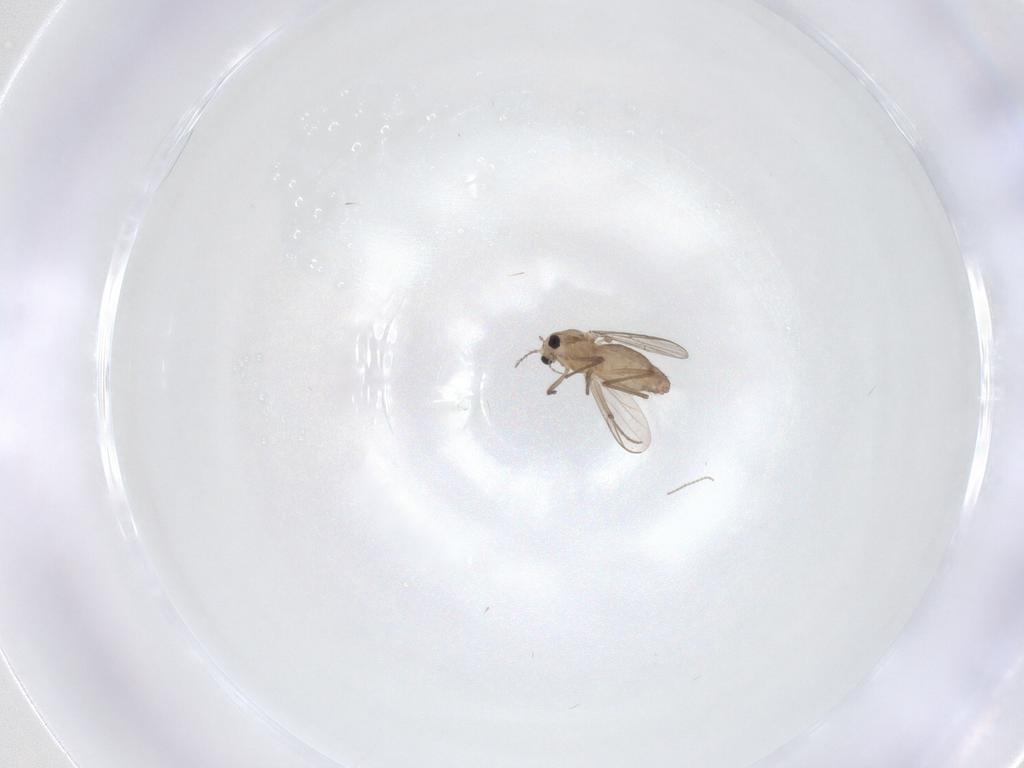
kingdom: Animalia
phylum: Arthropoda
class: Insecta
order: Diptera
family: Chironomidae
